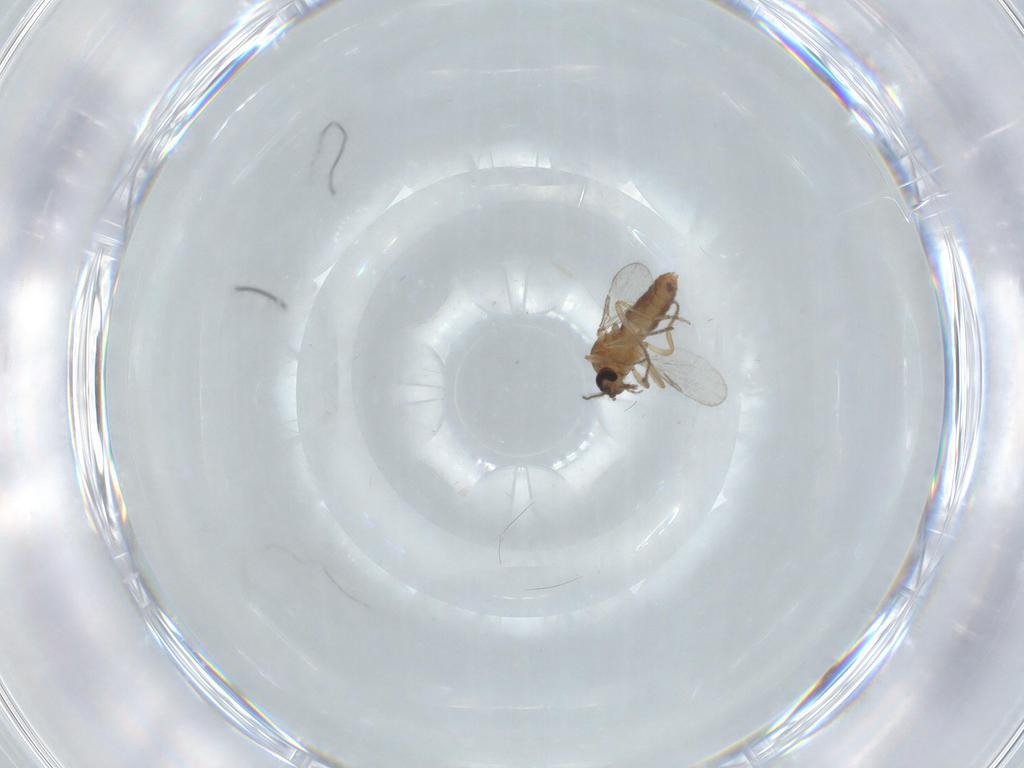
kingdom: Animalia
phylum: Arthropoda
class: Insecta
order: Diptera
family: Ceratopogonidae
